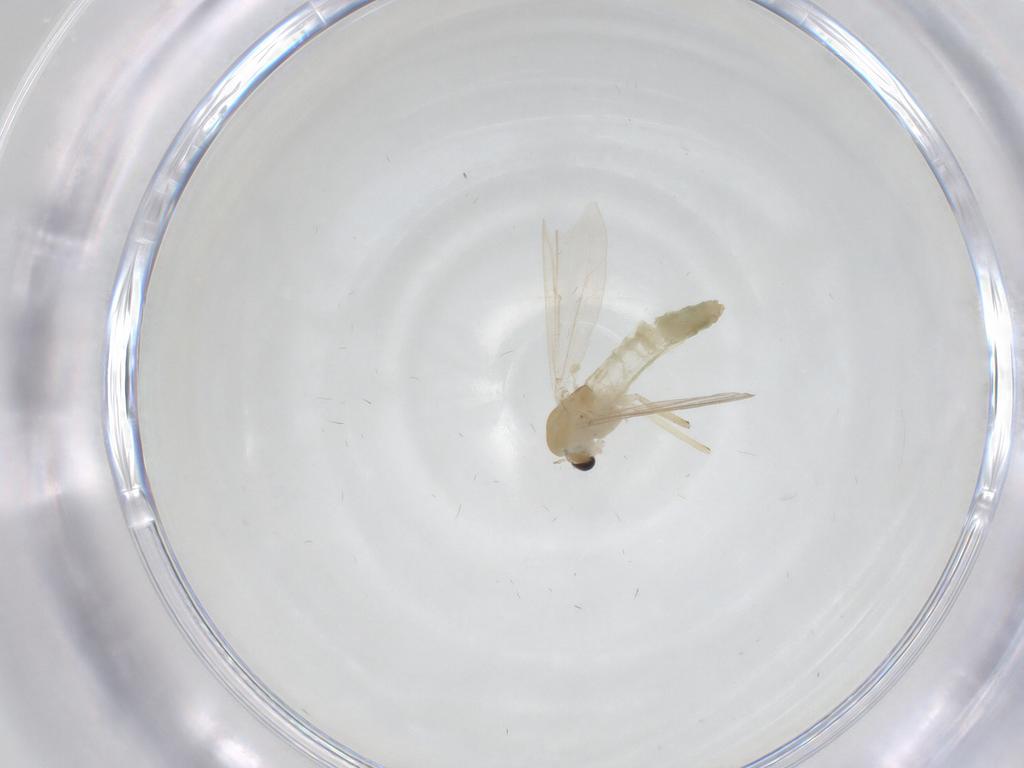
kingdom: Animalia
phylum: Arthropoda
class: Insecta
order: Diptera
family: Chironomidae
